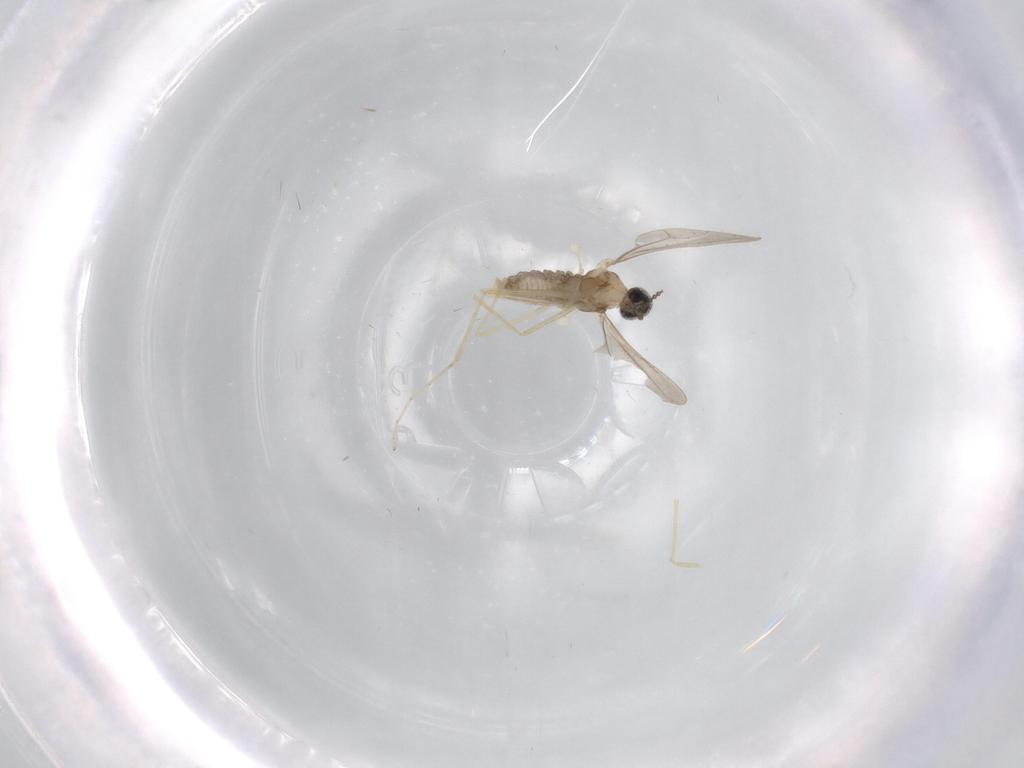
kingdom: Animalia
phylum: Arthropoda
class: Insecta
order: Diptera
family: Cecidomyiidae
